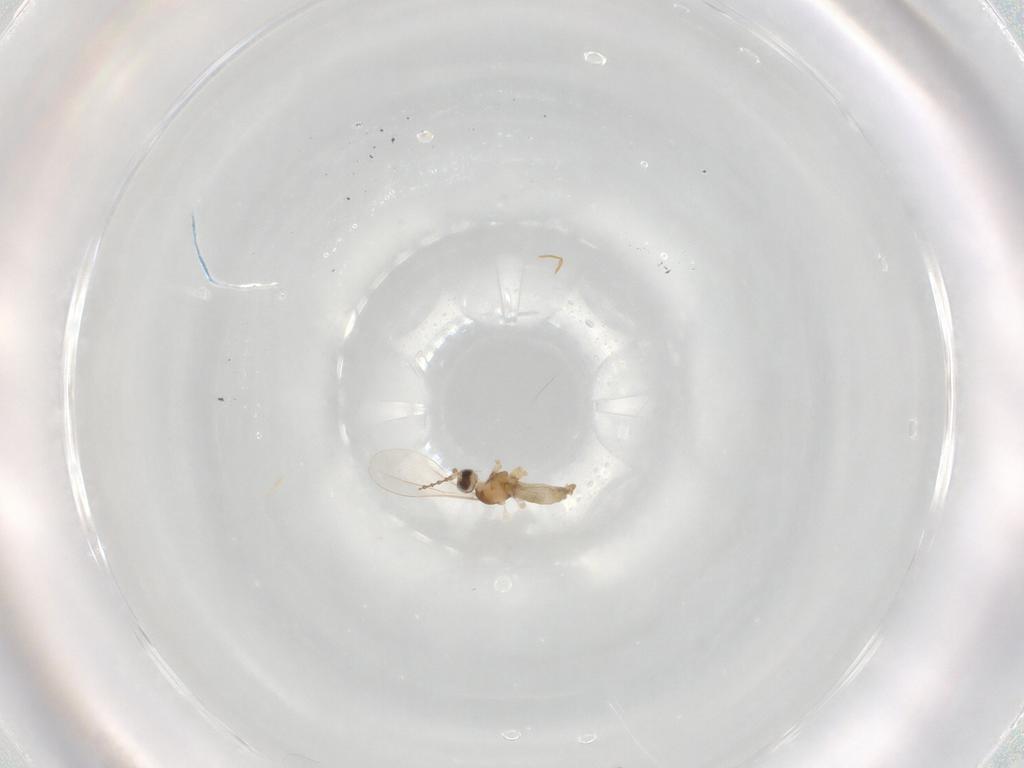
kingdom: Animalia
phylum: Arthropoda
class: Insecta
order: Diptera
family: Cecidomyiidae
